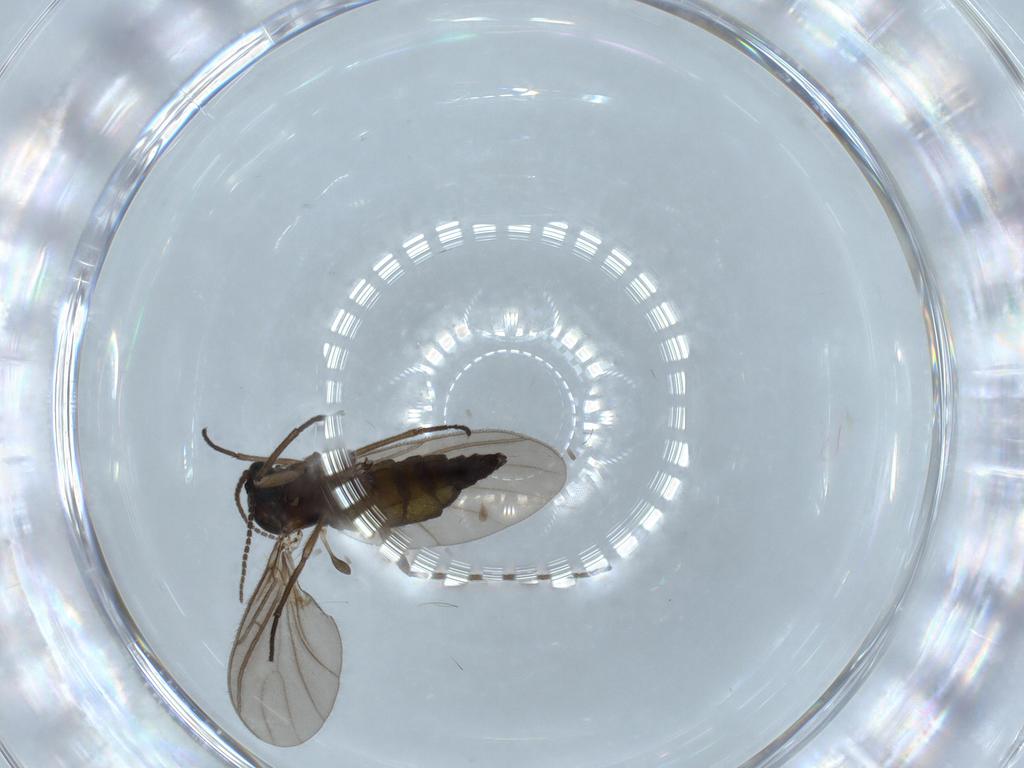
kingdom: Animalia
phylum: Arthropoda
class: Insecta
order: Diptera
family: Sciaridae
